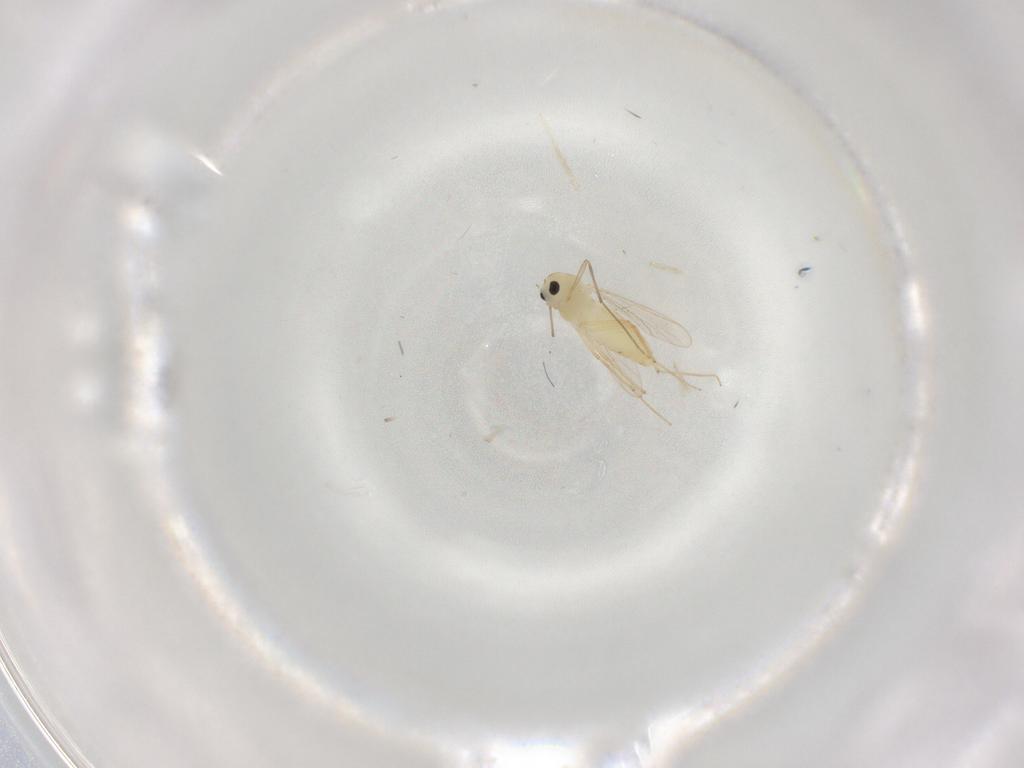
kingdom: Animalia
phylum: Arthropoda
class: Insecta
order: Diptera
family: Chironomidae
